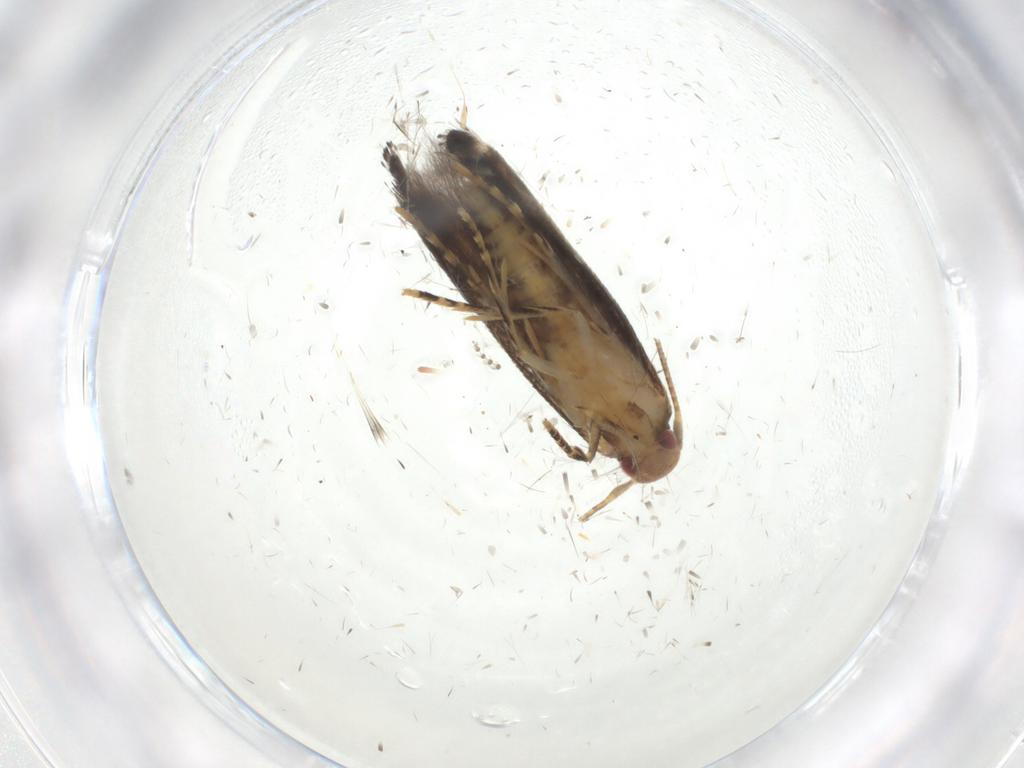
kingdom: Animalia
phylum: Arthropoda
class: Insecta
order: Lepidoptera
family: Momphidae
